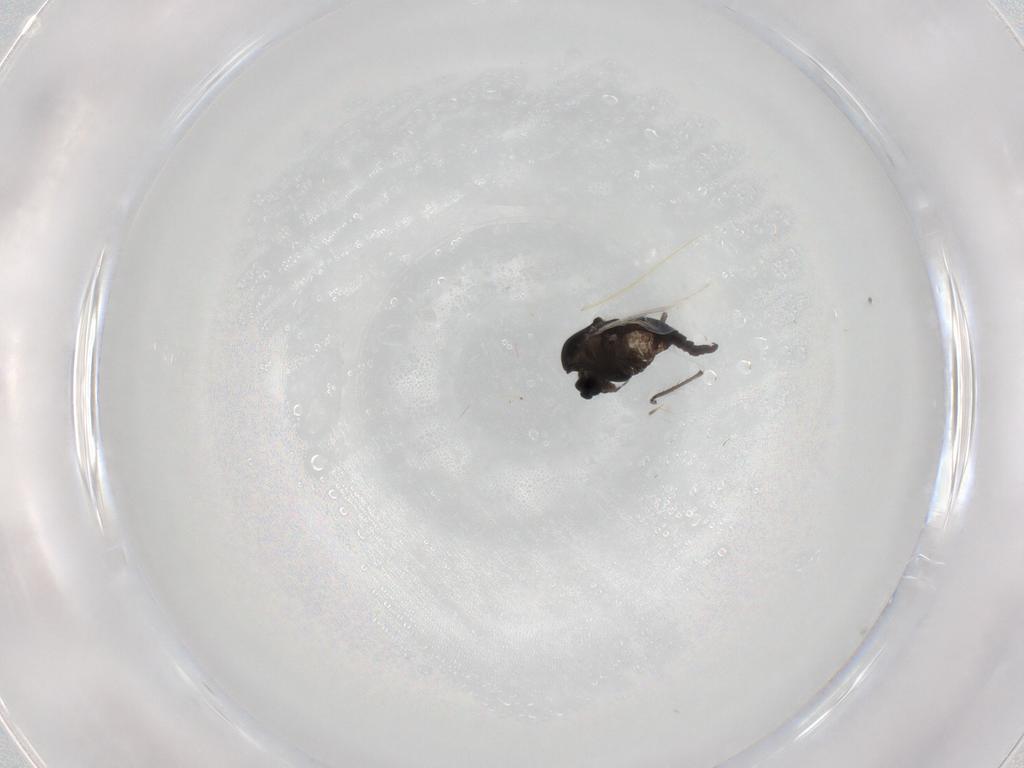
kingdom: Animalia
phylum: Arthropoda
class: Insecta
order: Diptera
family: Chironomidae
